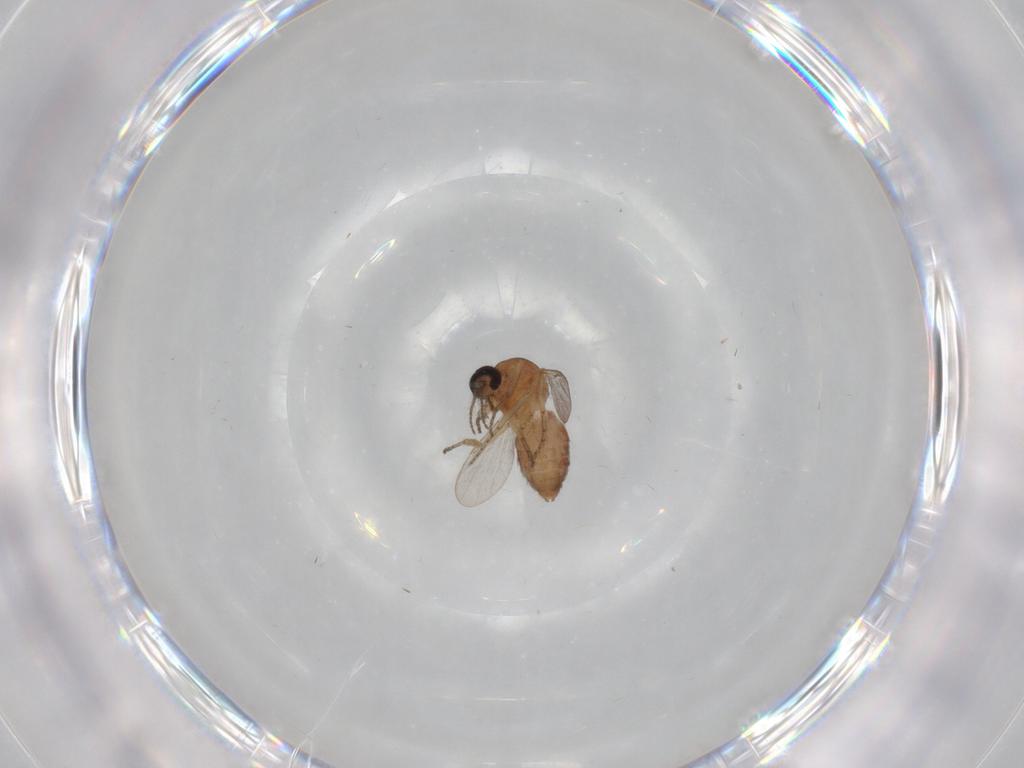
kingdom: Animalia
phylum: Arthropoda
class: Insecta
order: Diptera
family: Ceratopogonidae
